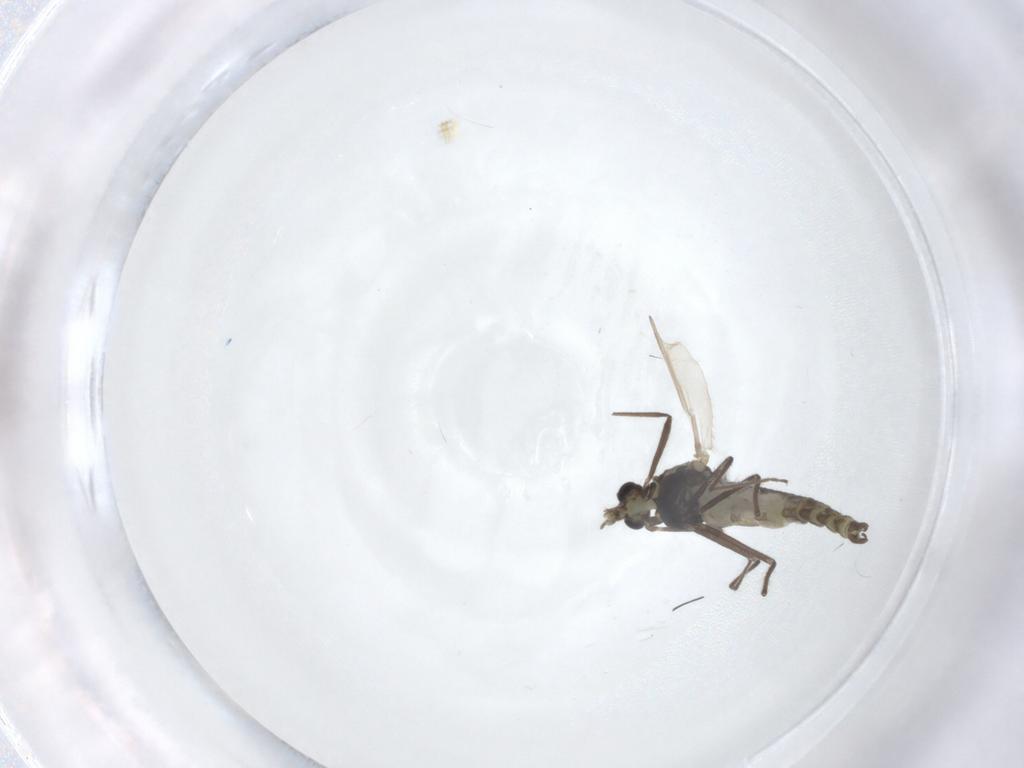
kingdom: Animalia
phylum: Arthropoda
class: Insecta
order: Diptera
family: Chironomidae
